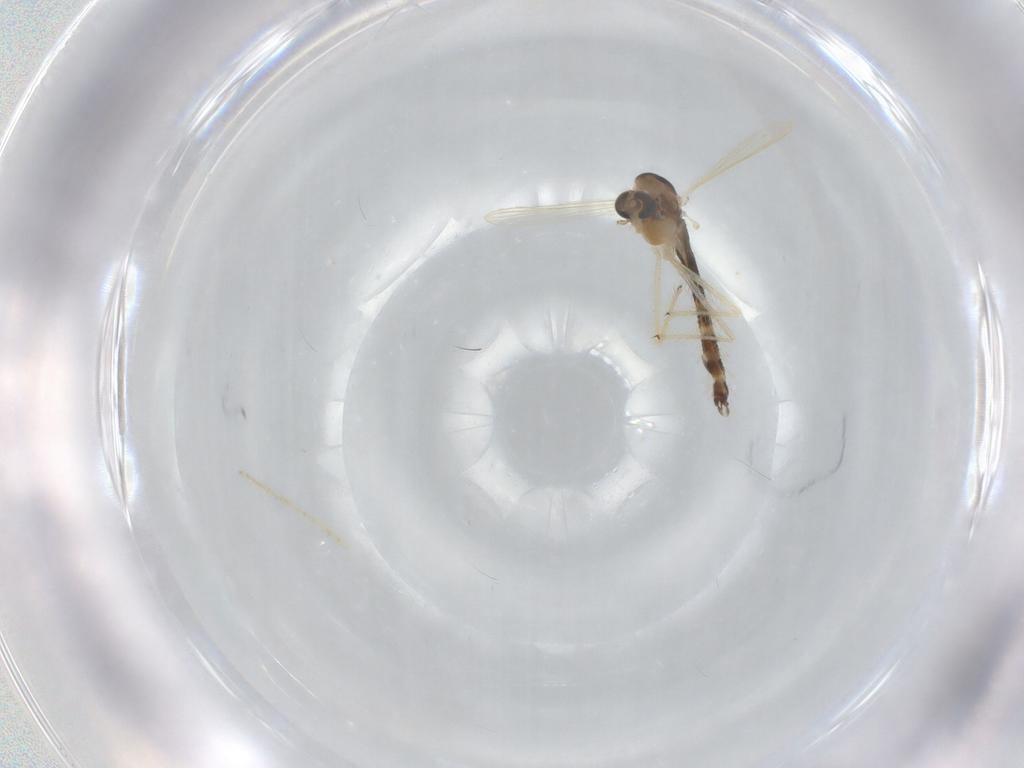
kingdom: Animalia
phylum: Arthropoda
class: Insecta
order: Diptera
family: Chironomidae
